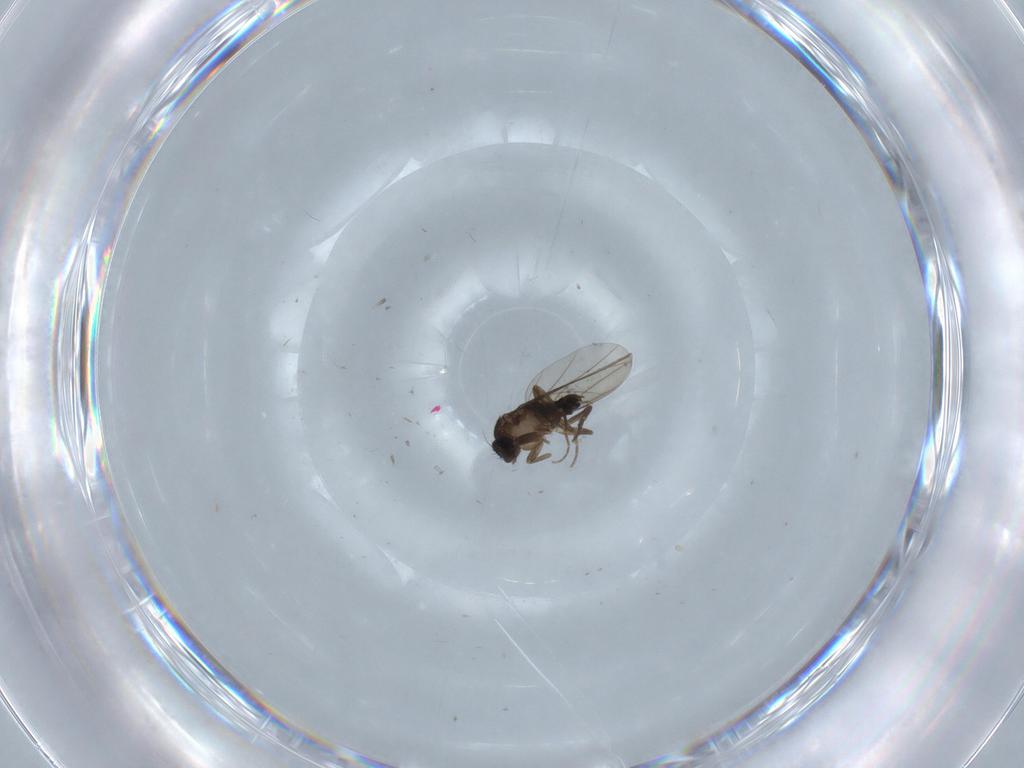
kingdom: Animalia
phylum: Arthropoda
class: Insecta
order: Diptera
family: Phoridae
